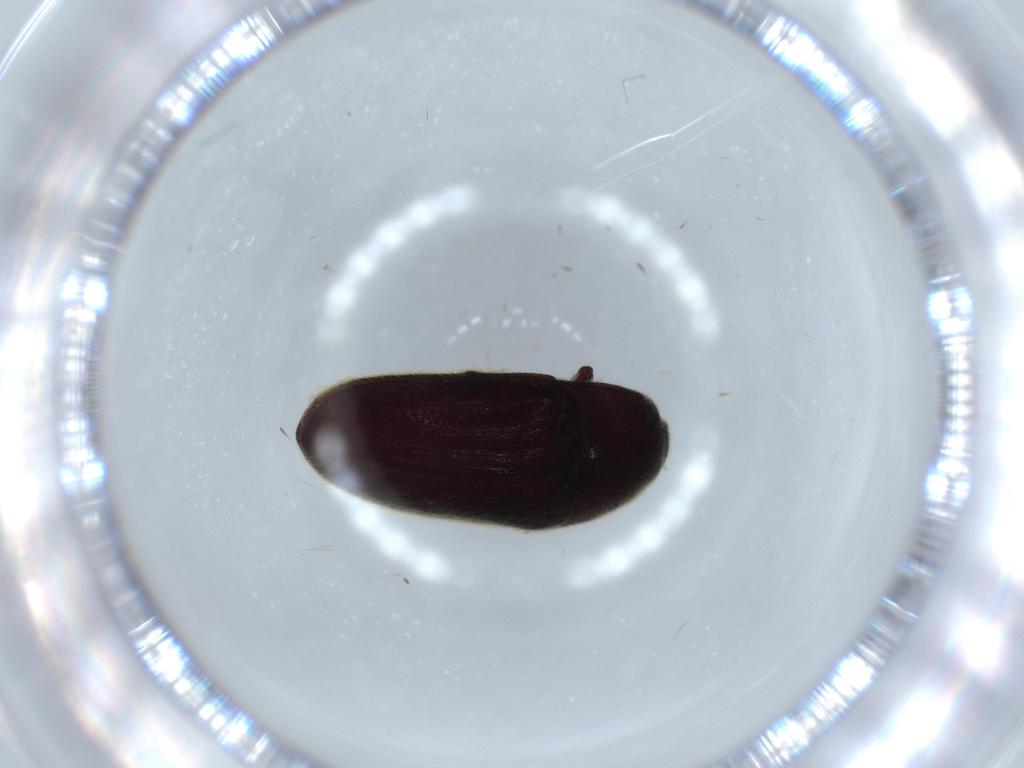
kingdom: Animalia
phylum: Arthropoda
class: Insecta
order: Coleoptera
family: Throscidae
